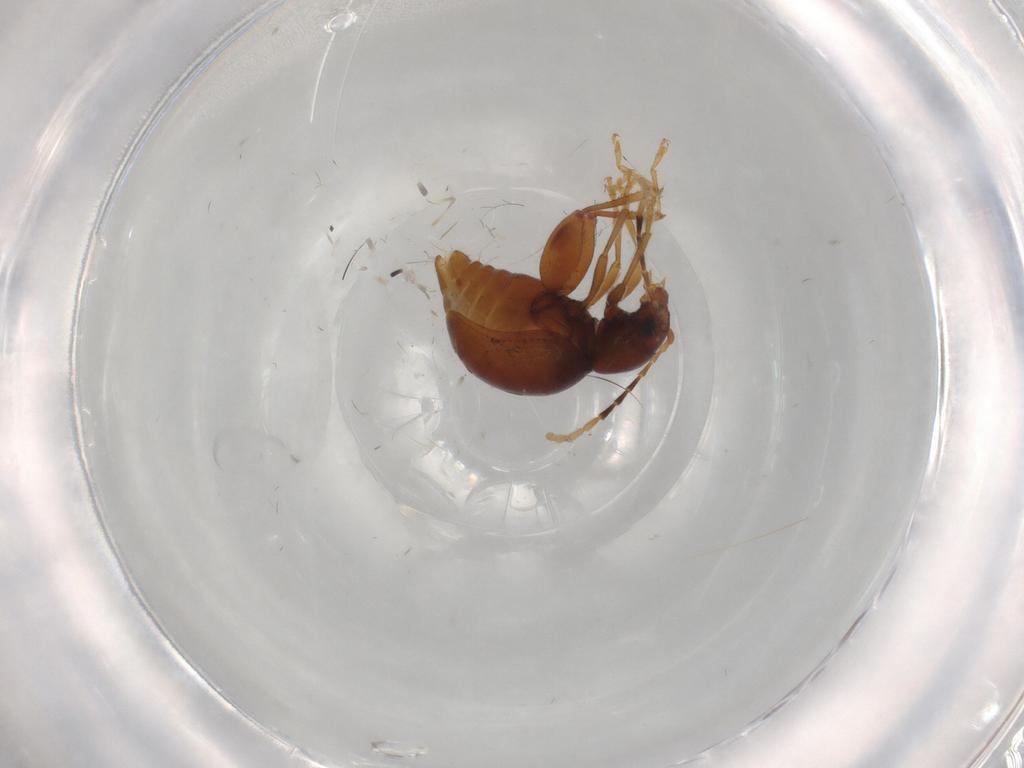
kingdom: Animalia
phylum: Arthropoda
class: Insecta
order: Coleoptera
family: Chrysomelidae
